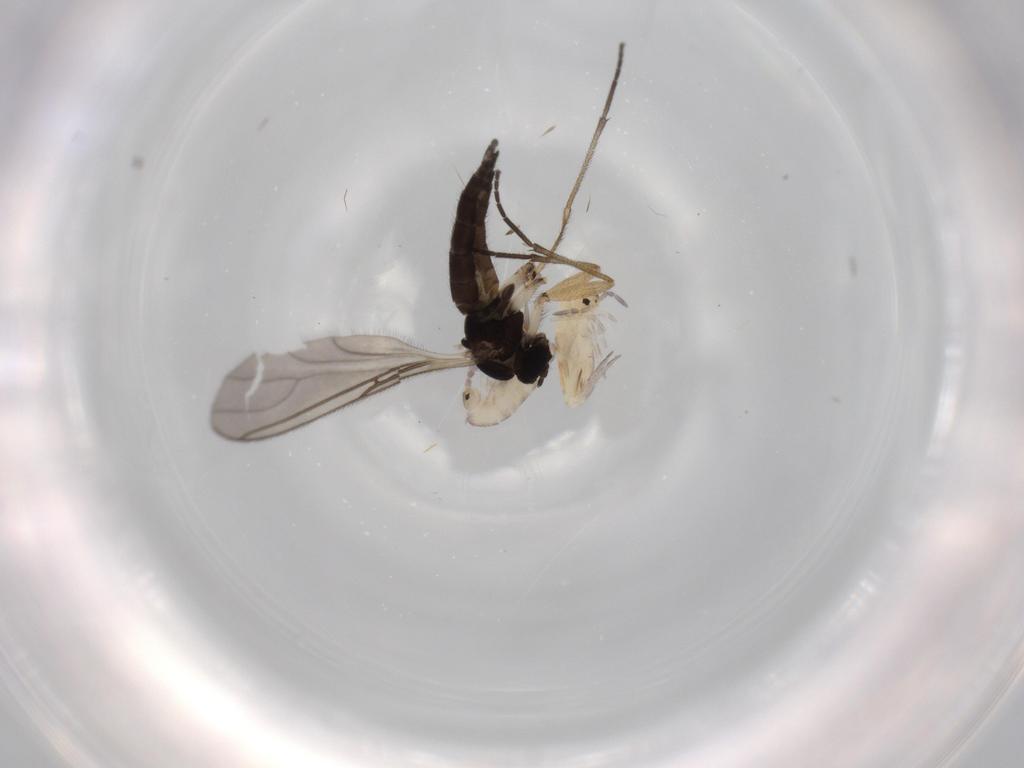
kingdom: Animalia
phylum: Arthropoda
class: Insecta
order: Diptera
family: Sciaridae
